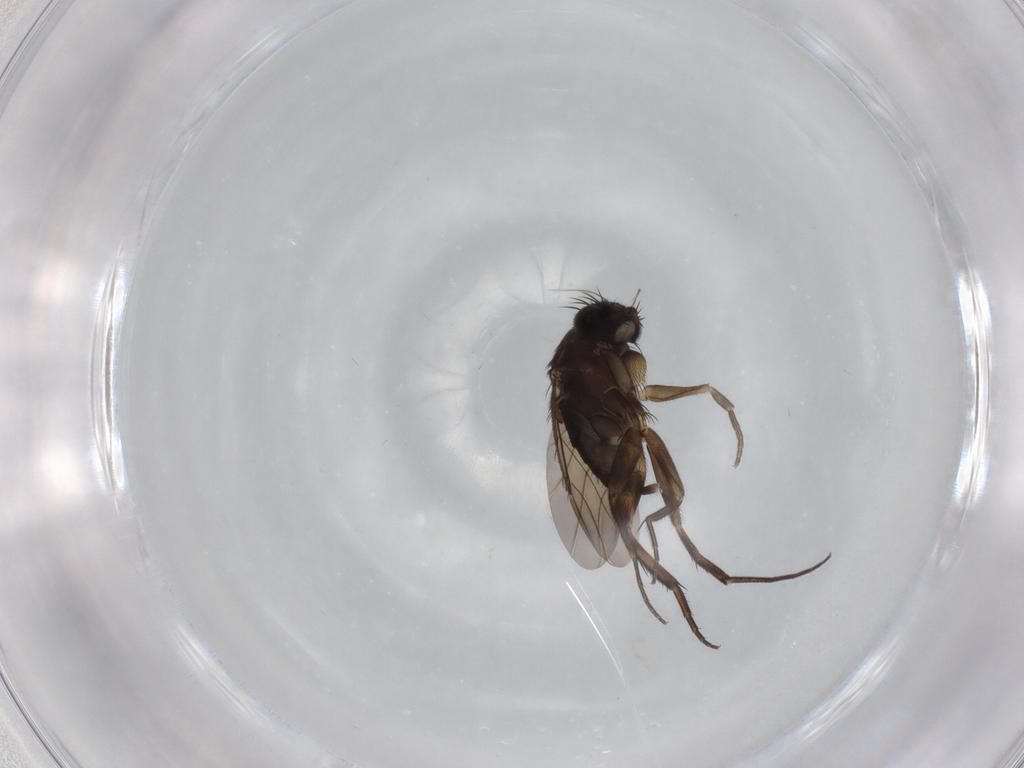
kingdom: Animalia
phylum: Arthropoda
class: Insecta
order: Diptera
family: Phoridae
